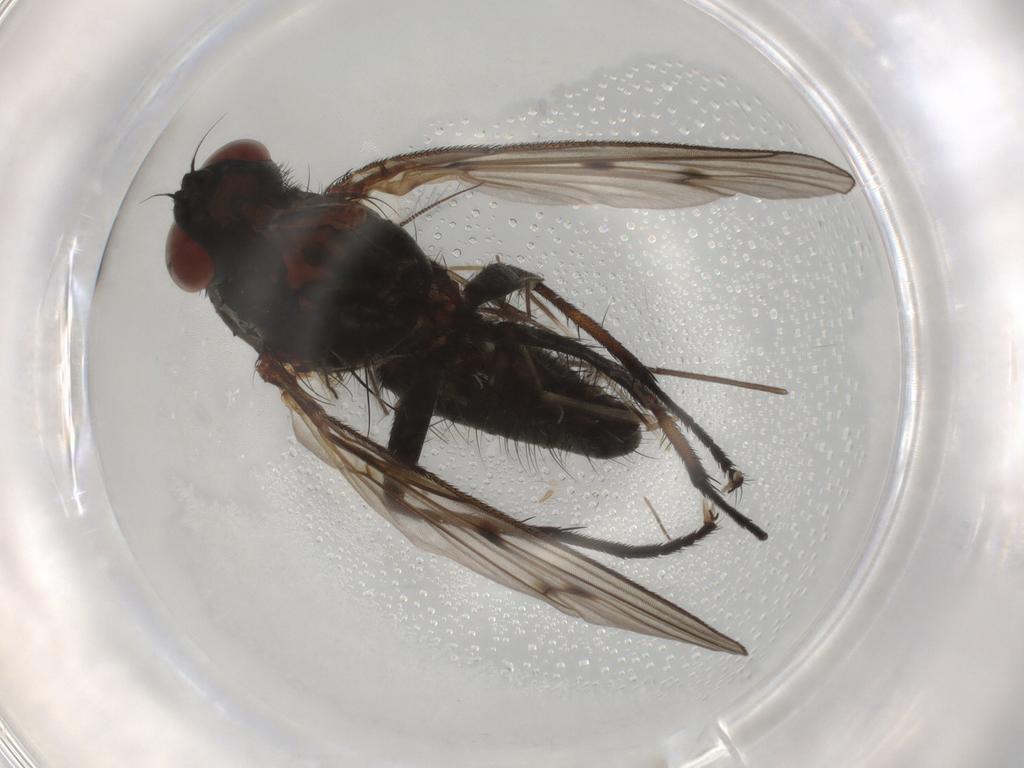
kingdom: Animalia
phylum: Arthropoda
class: Insecta
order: Diptera
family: Anthomyiidae
